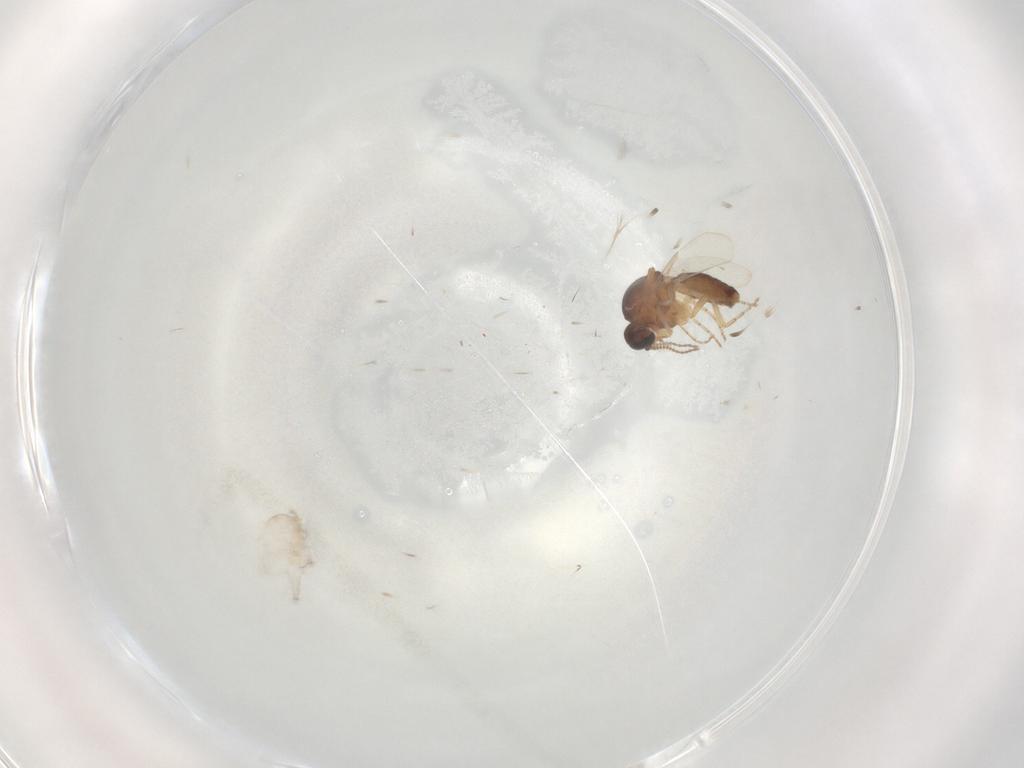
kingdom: Animalia
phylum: Arthropoda
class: Insecta
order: Diptera
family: Ceratopogonidae
